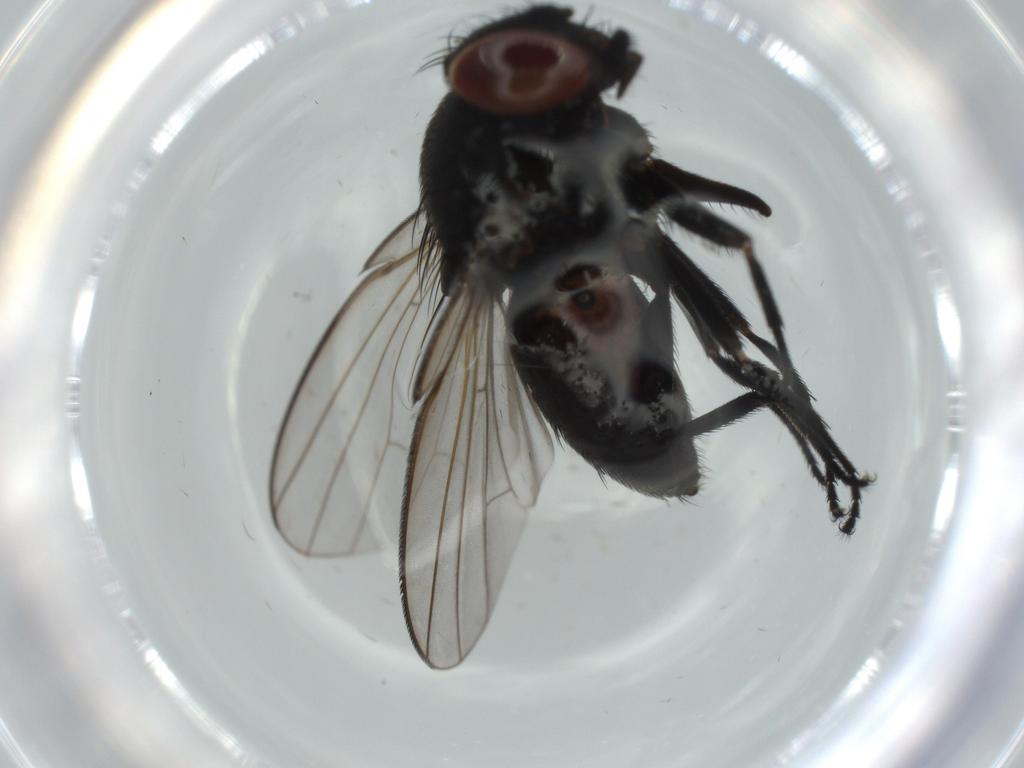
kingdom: Animalia
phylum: Arthropoda
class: Insecta
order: Diptera
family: Milichiidae
